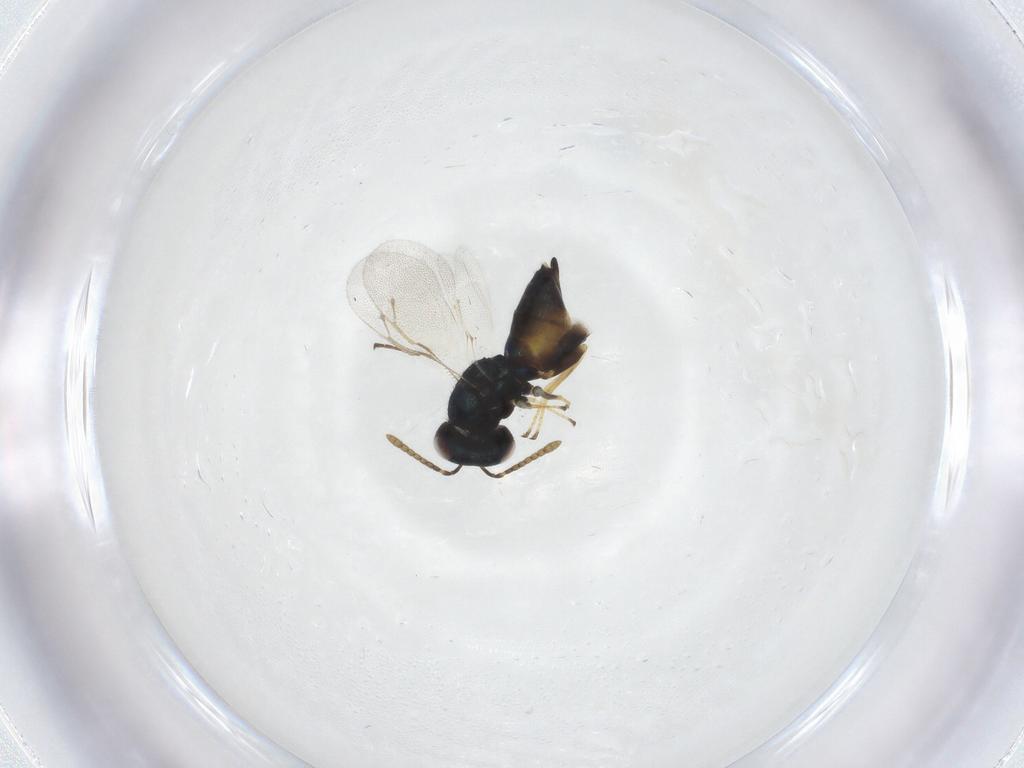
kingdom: Animalia
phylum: Arthropoda
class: Insecta
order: Hymenoptera
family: Pteromalidae
